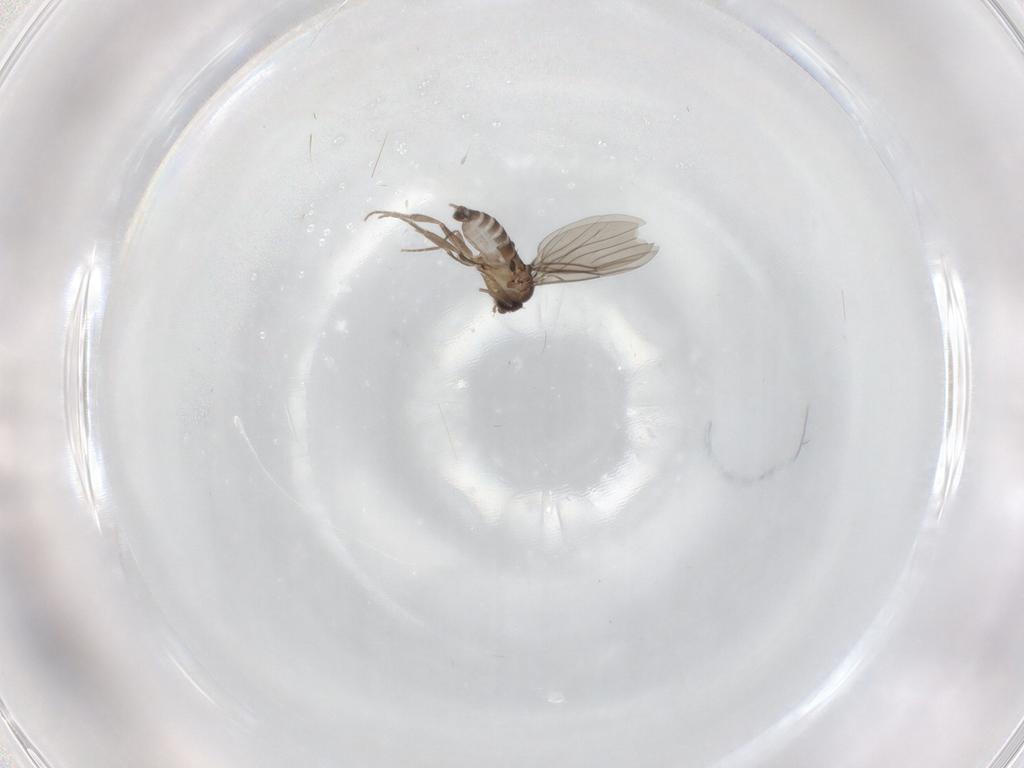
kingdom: Animalia
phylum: Arthropoda
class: Insecta
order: Diptera
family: Phoridae
